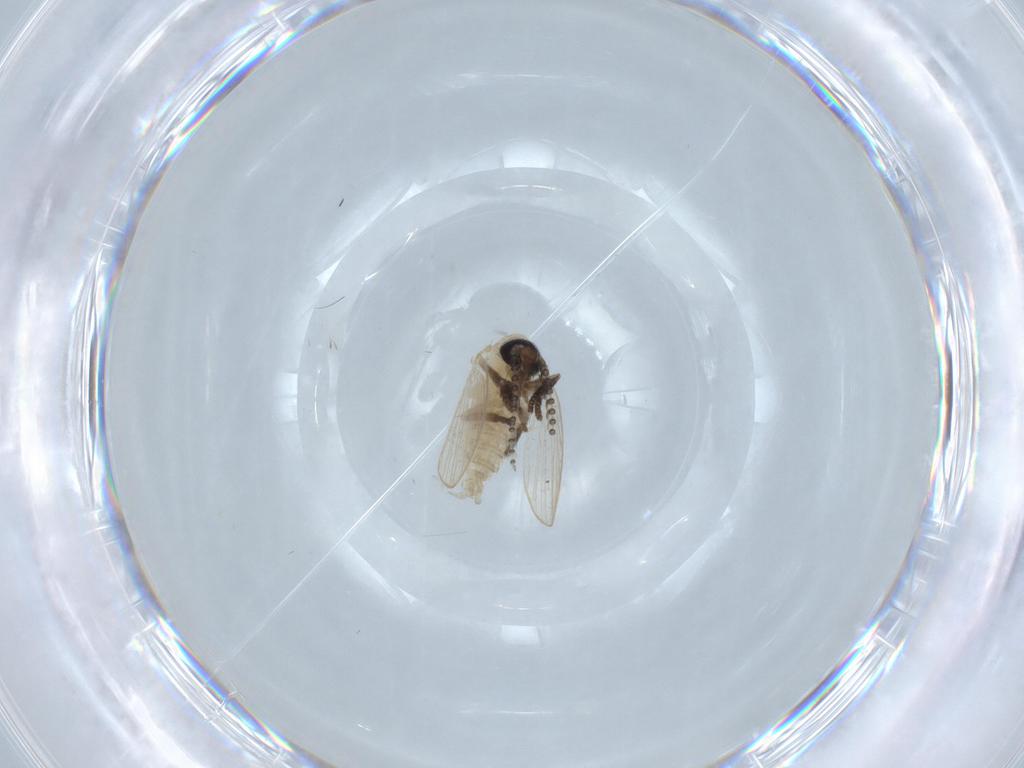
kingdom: Animalia
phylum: Arthropoda
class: Insecta
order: Diptera
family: Psychodidae
